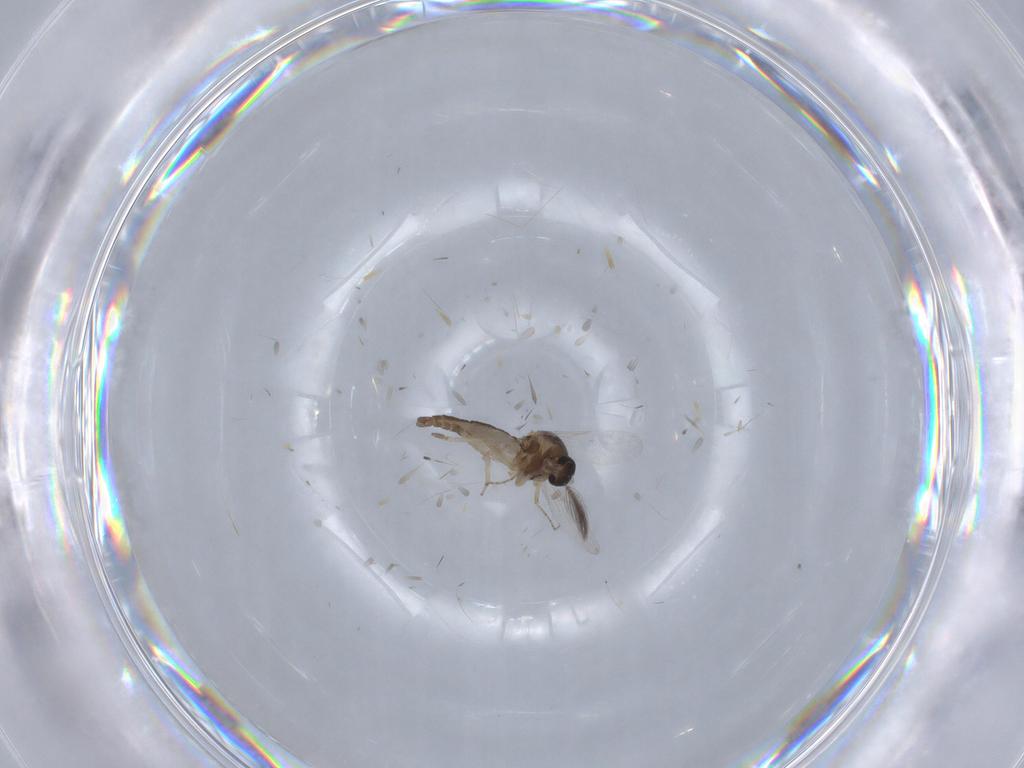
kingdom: Animalia
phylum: Arthropoda
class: Insecta
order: Diptera
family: Ceratopogonidae
